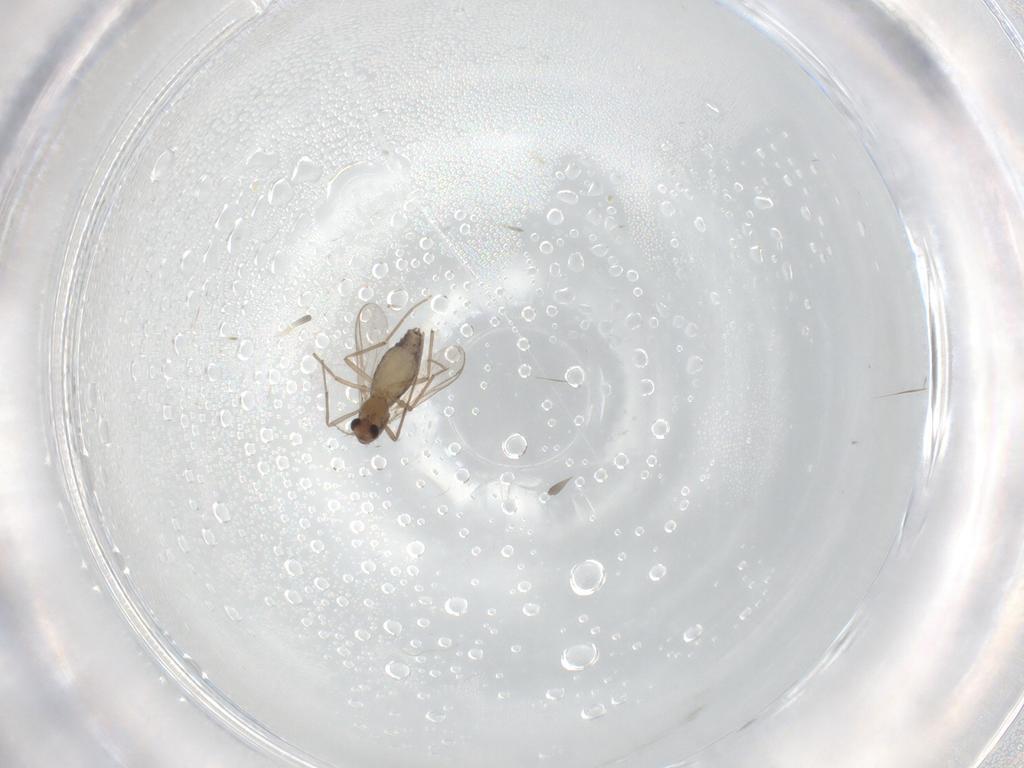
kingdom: Animalia
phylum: Arthropoda
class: Insecta
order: Diptera
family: Chironomidae
